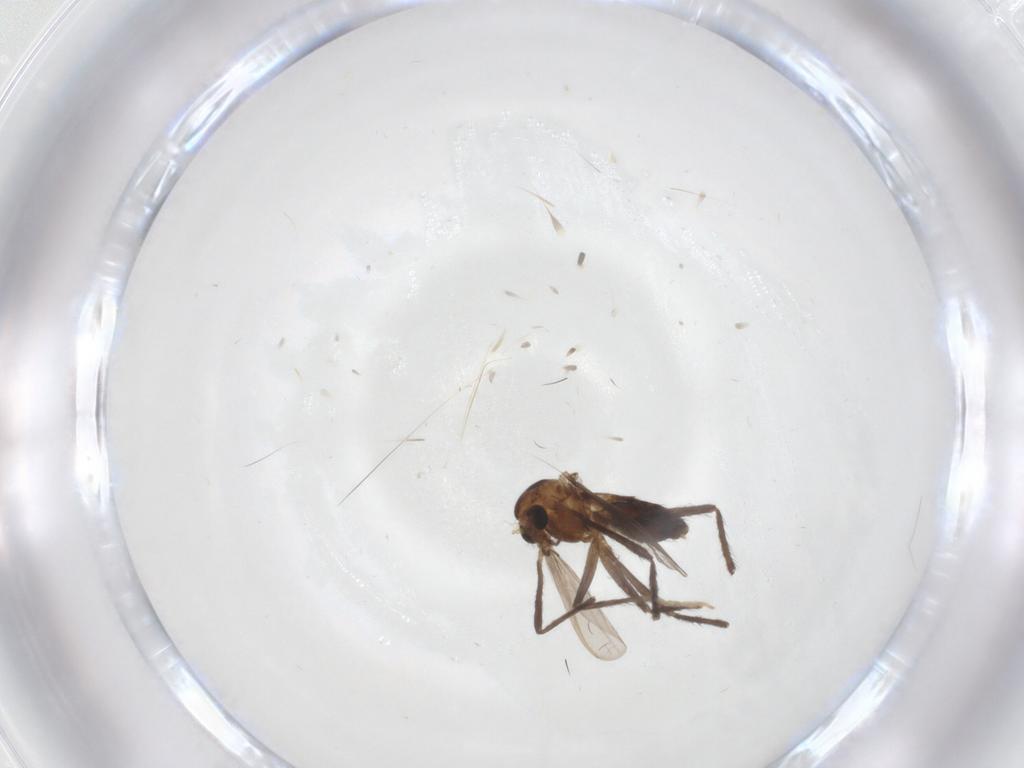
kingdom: Animalia
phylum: Arthropoda
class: Insecta
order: Diptera
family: Chironomidae
